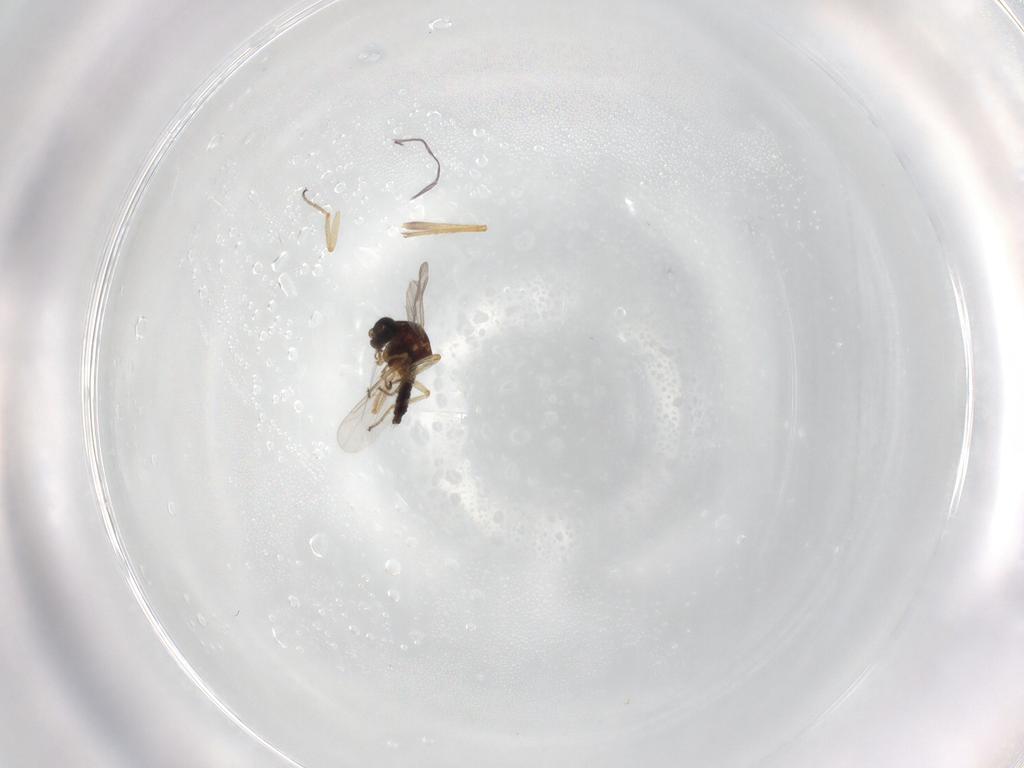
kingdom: Animalia
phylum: Arthropoda
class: Insecta
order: Diptera
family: Ceratopogonidae
